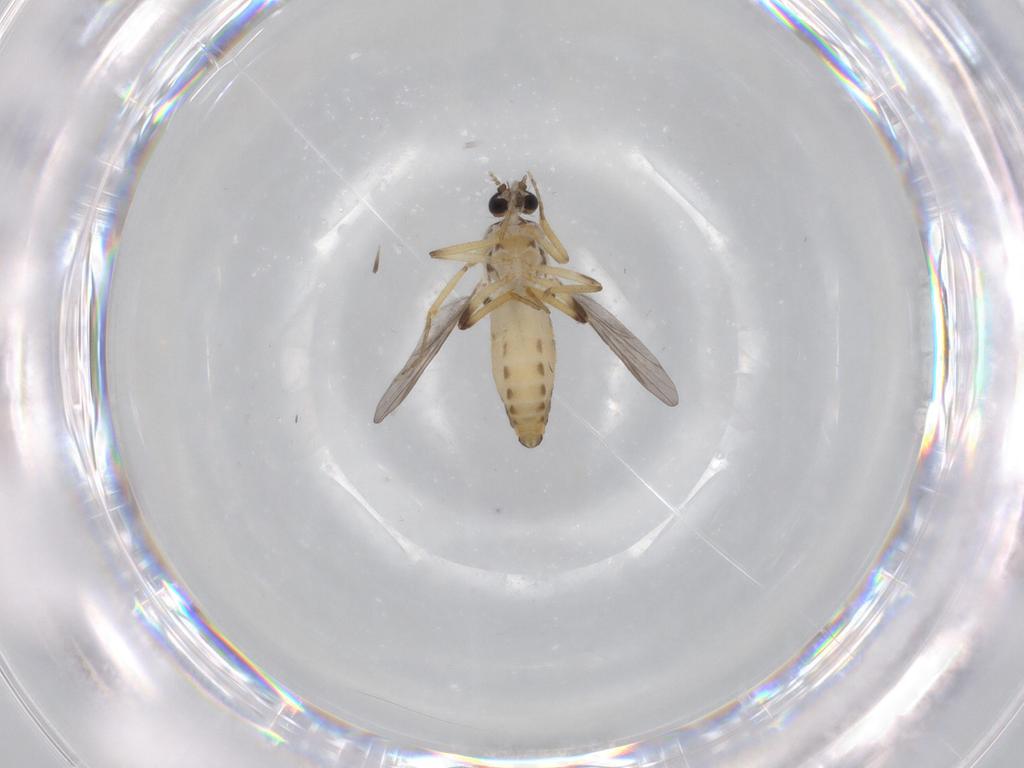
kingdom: Animalia
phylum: Arthropoda
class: Insecta
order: Diptera
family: Ceratopogonidae
